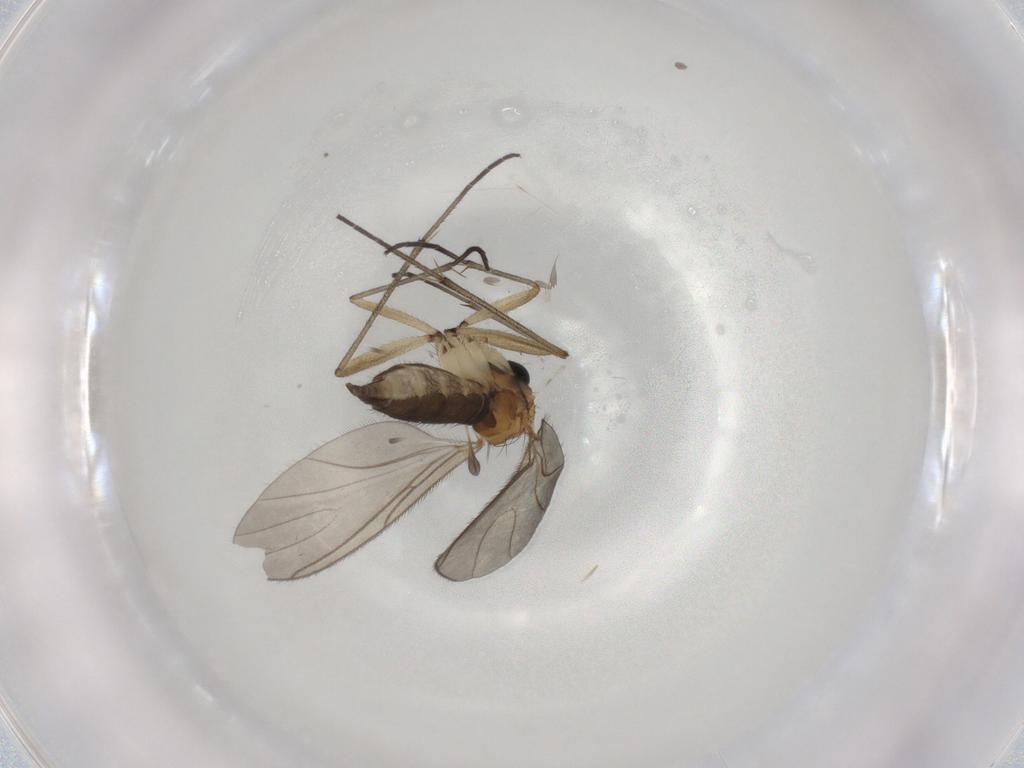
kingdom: Animalia
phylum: Arthropoda
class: Insecta
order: Diptera
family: Sciaridae
